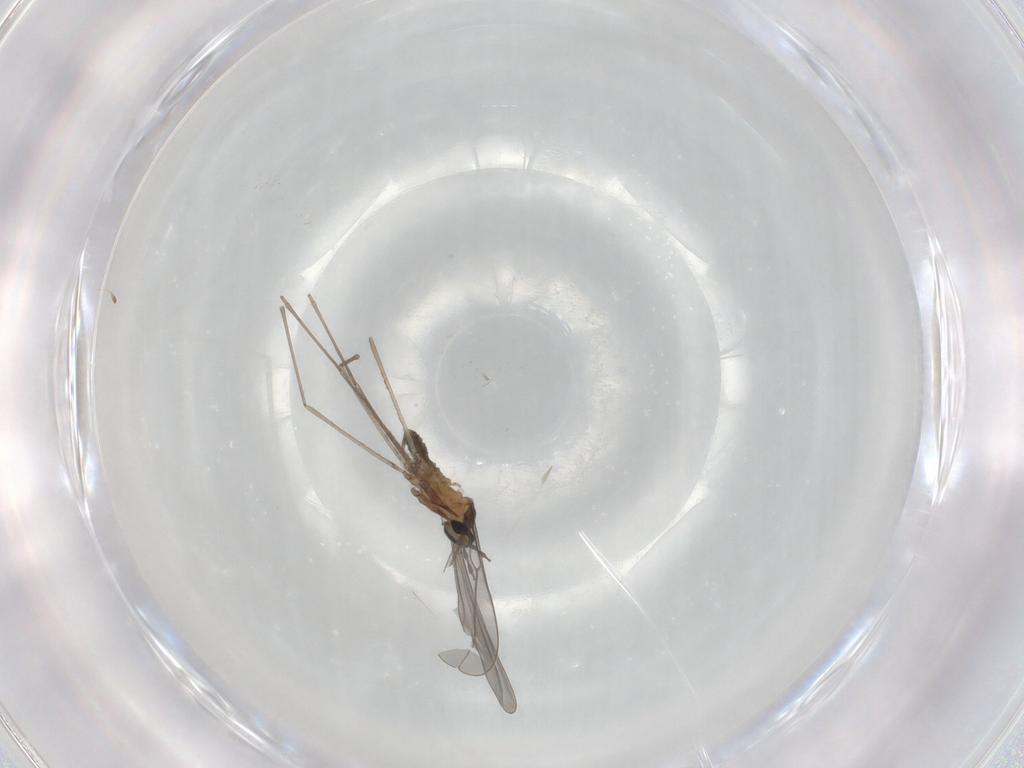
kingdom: Animalia
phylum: Arthropoda
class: Insecta
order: Diptera
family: Cecidomyiidae
